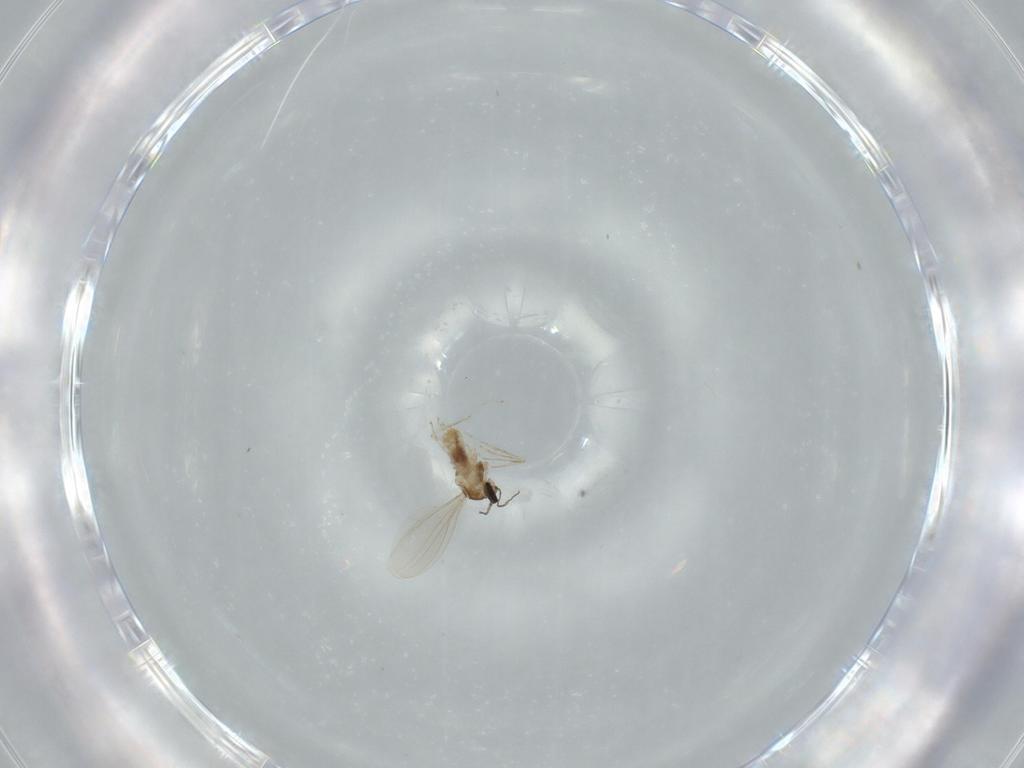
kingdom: Animalia
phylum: Arthropoda
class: Insecta
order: Diptera
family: Cecidomyiidae
